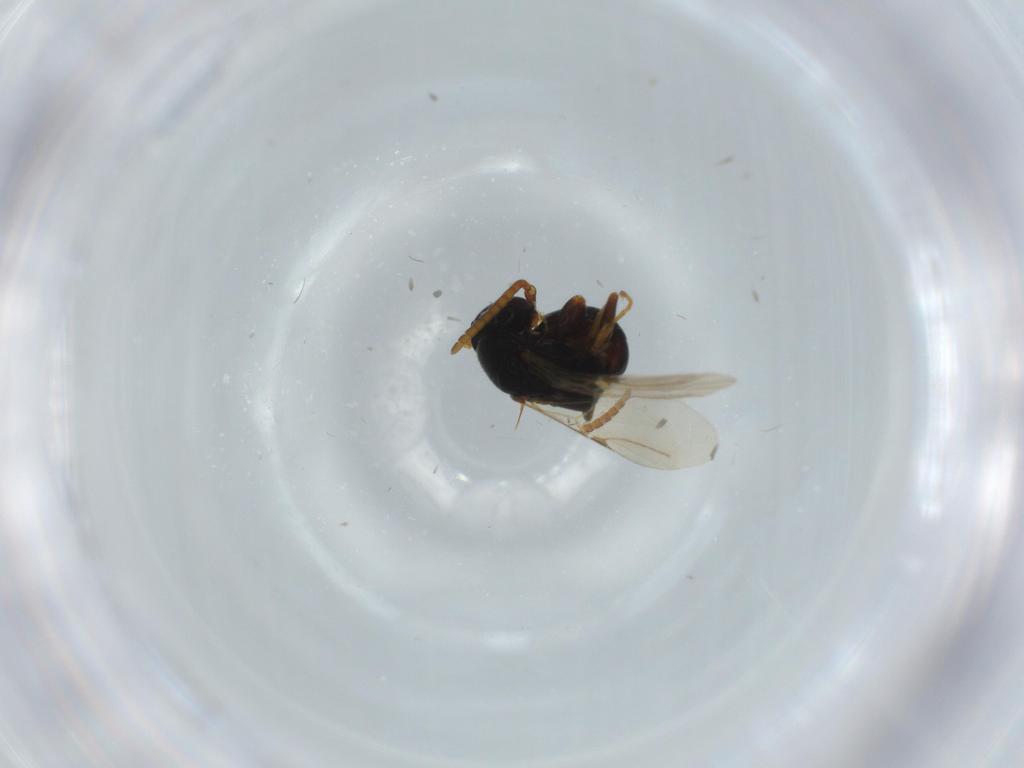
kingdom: Animalia
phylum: Arthropoda
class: Insecta
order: Hymenoptera
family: Bethylidae
